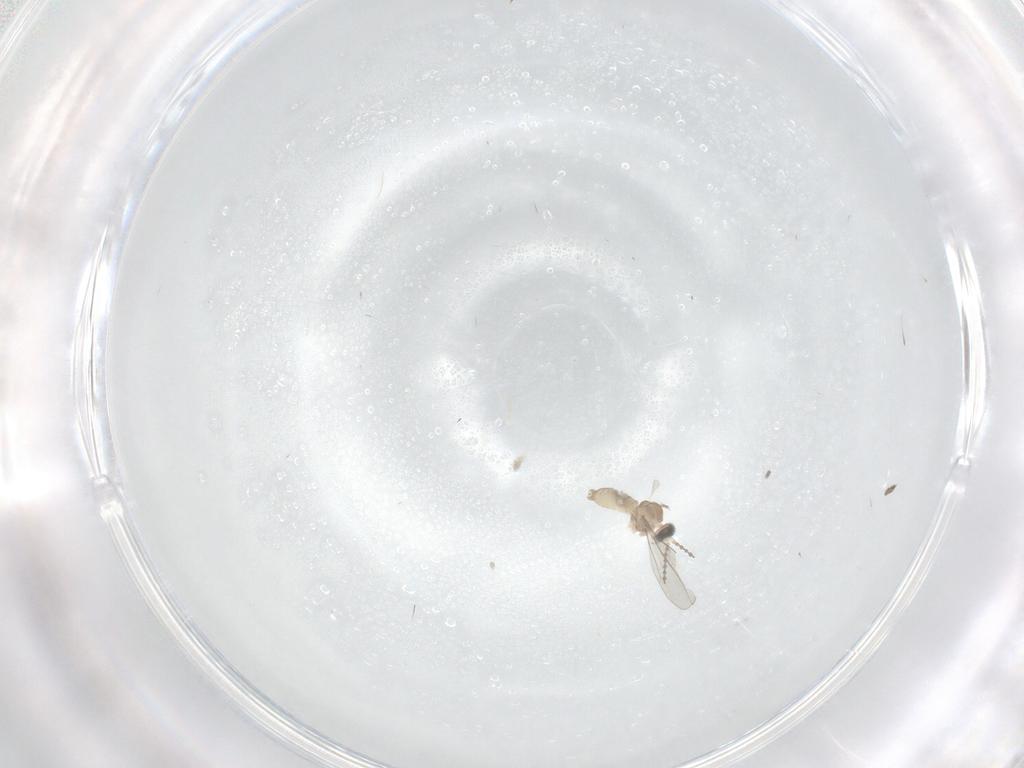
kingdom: Animalia
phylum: Arthropoda
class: Insecta
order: Diptera
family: Cecidomyiidae
